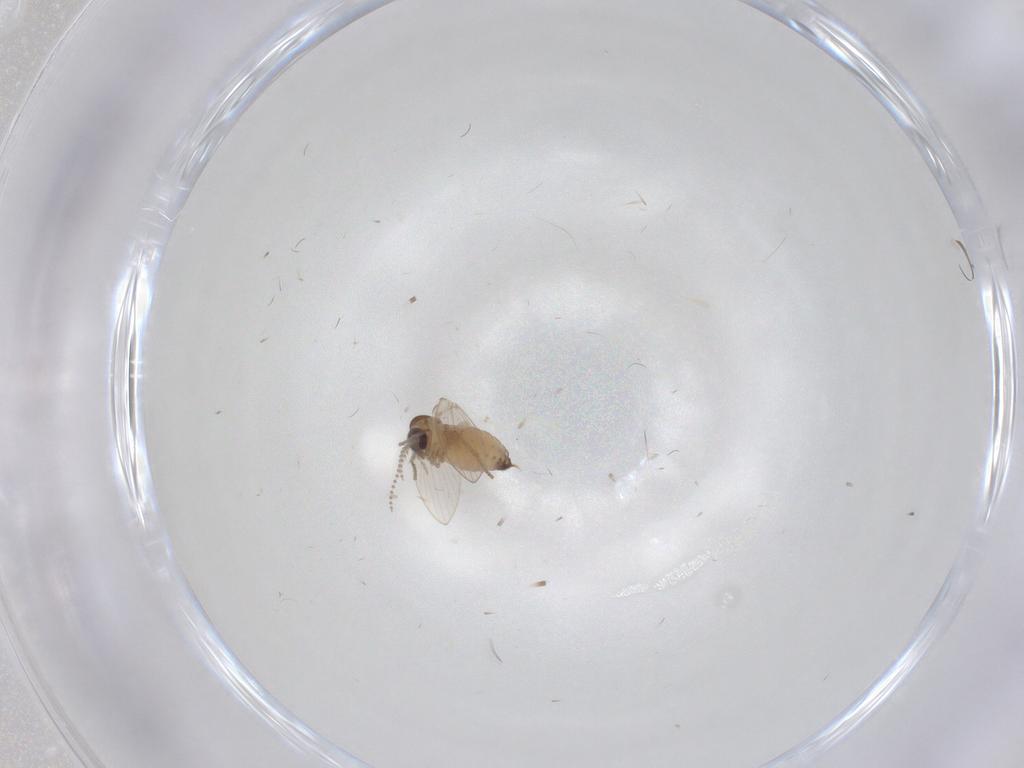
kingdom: Animalia
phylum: Arthropoda
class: Insecta
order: Diptera
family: Psychodidae
